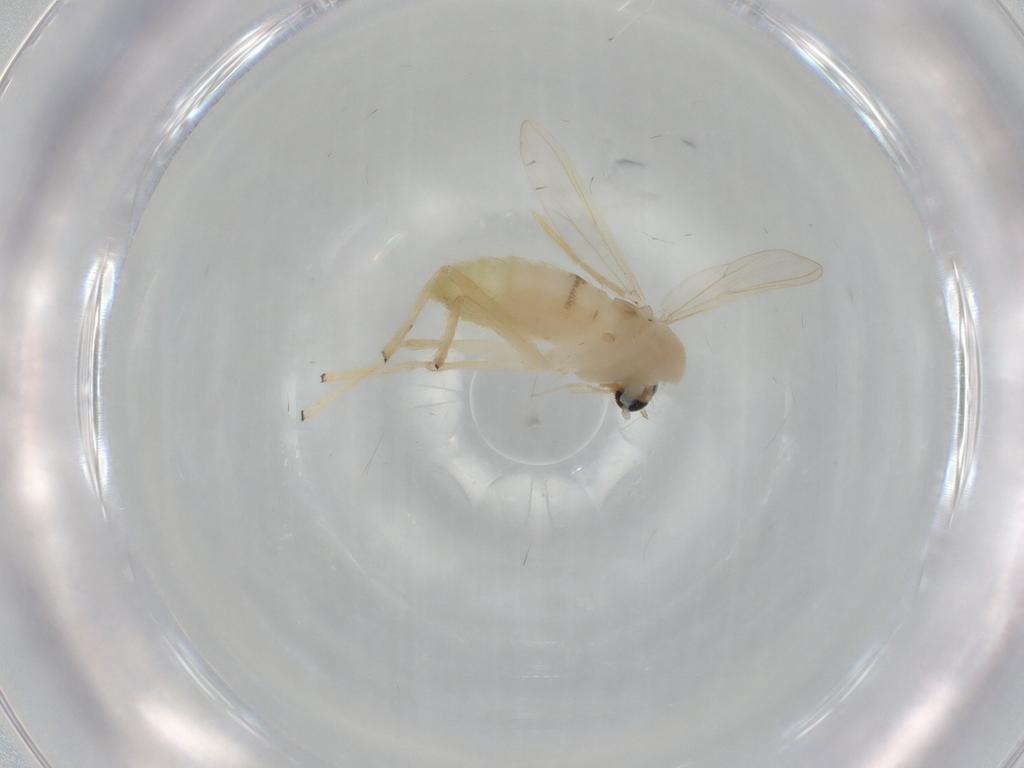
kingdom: Animalia
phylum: Arthropoda
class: Insecta
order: Diptera
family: Chironomidae
